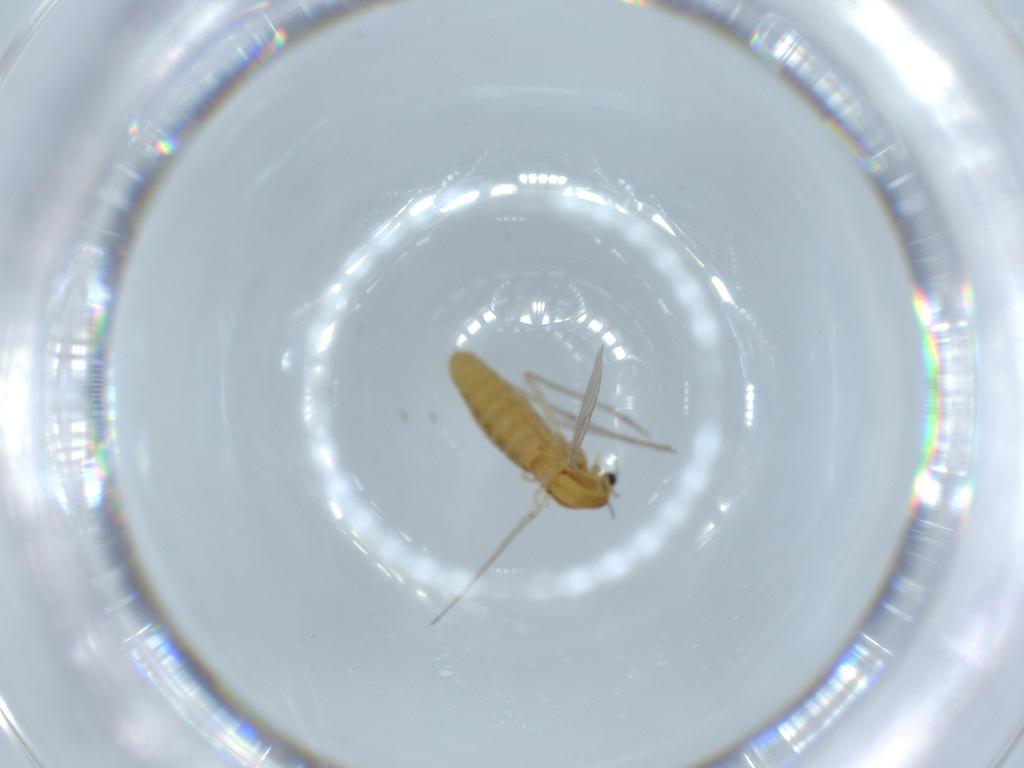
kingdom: Animalia
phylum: Arthropoda
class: Insecta
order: Diptera
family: Chironomidae
